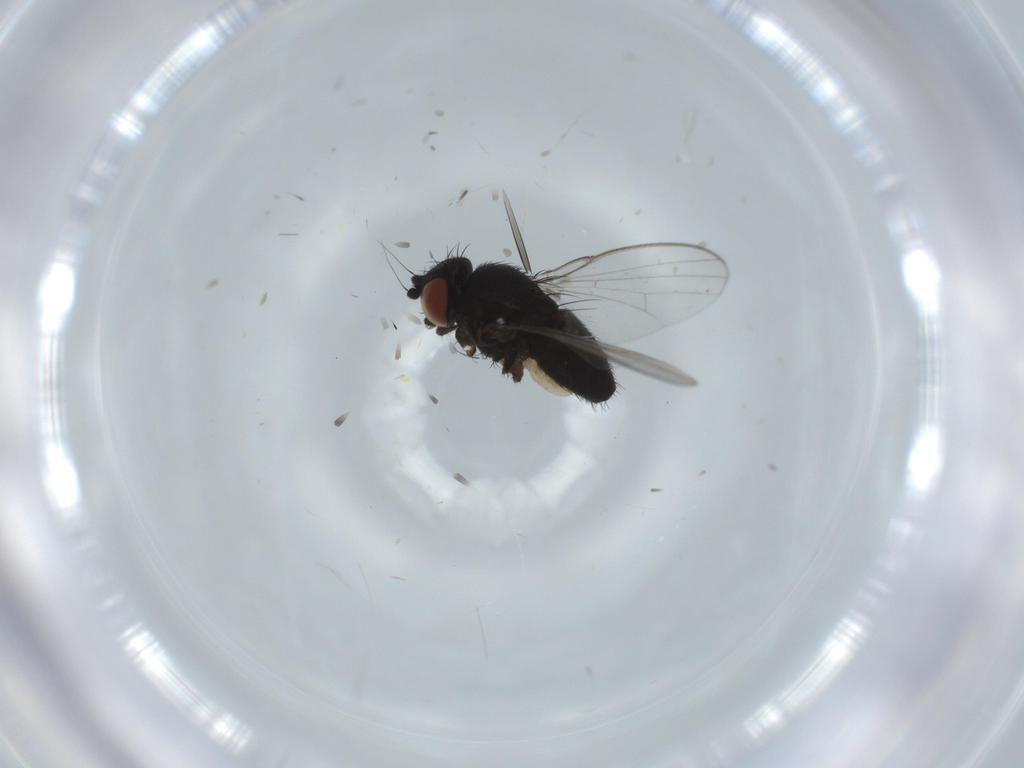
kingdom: Animalia
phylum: Arthropoda
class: Insecta
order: Diptera
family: Milichiidae
